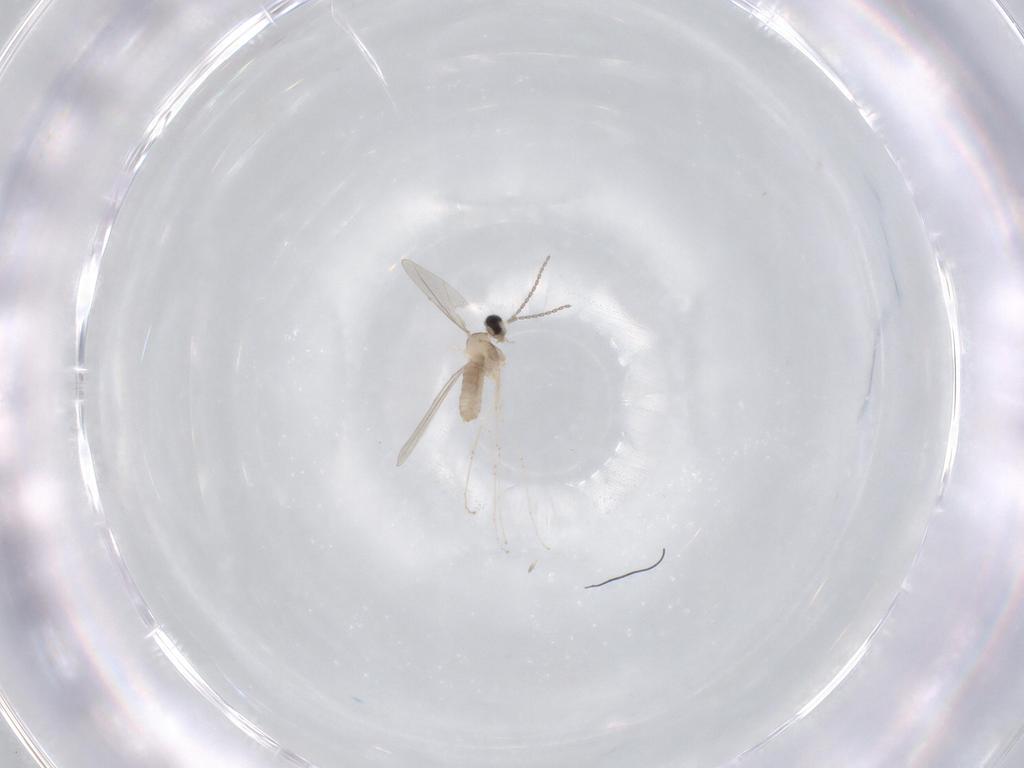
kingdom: Animalia
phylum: Arthropoda
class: Insecta
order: Diptera
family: Cecidomyiidae
